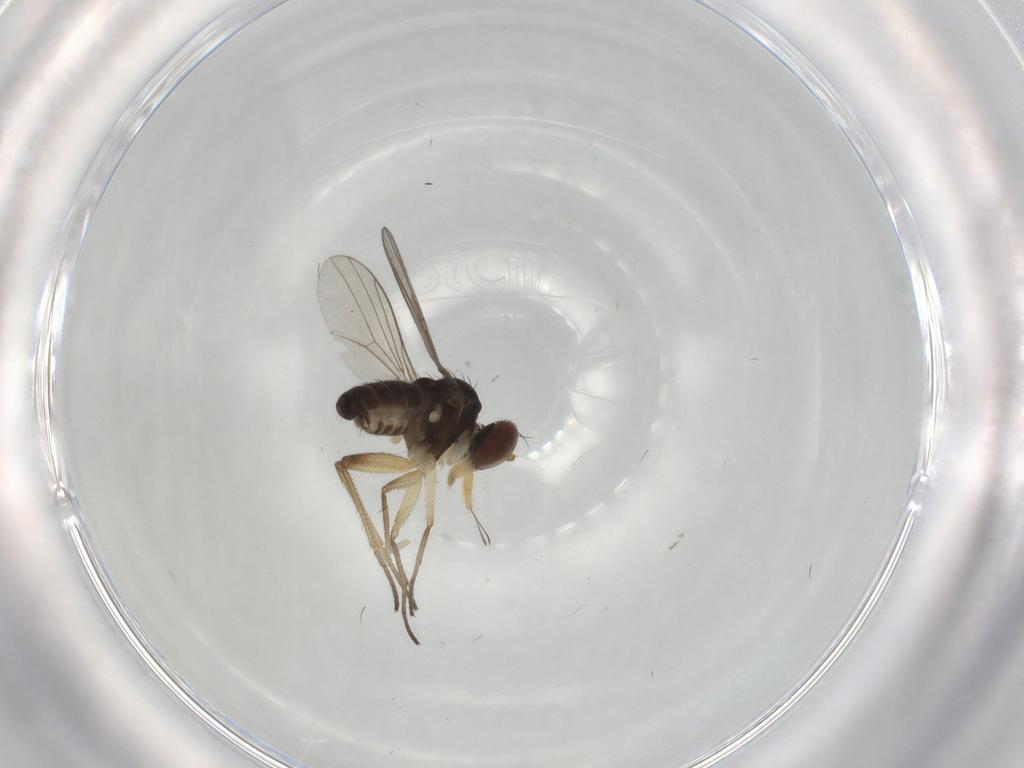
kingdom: Animalia
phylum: Arthropoda
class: Insecta
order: Diptera
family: Dolichopodidae
